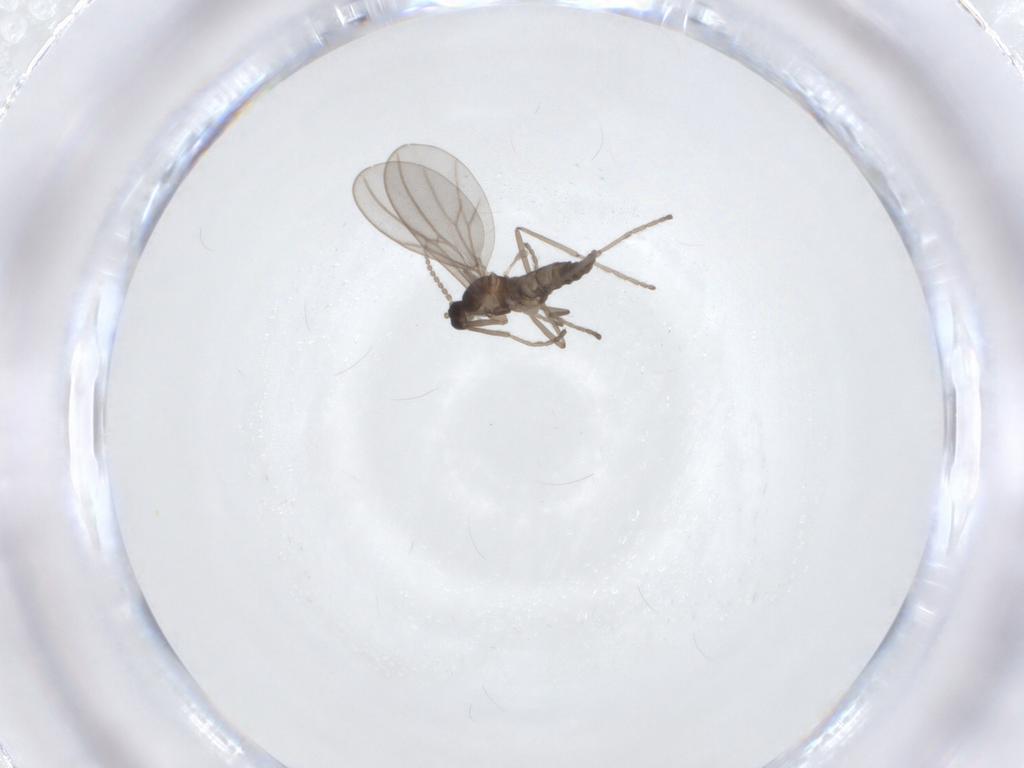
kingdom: Animalia
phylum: Arthropoda
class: Insecta
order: Diptera
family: Cecidomyiidae
